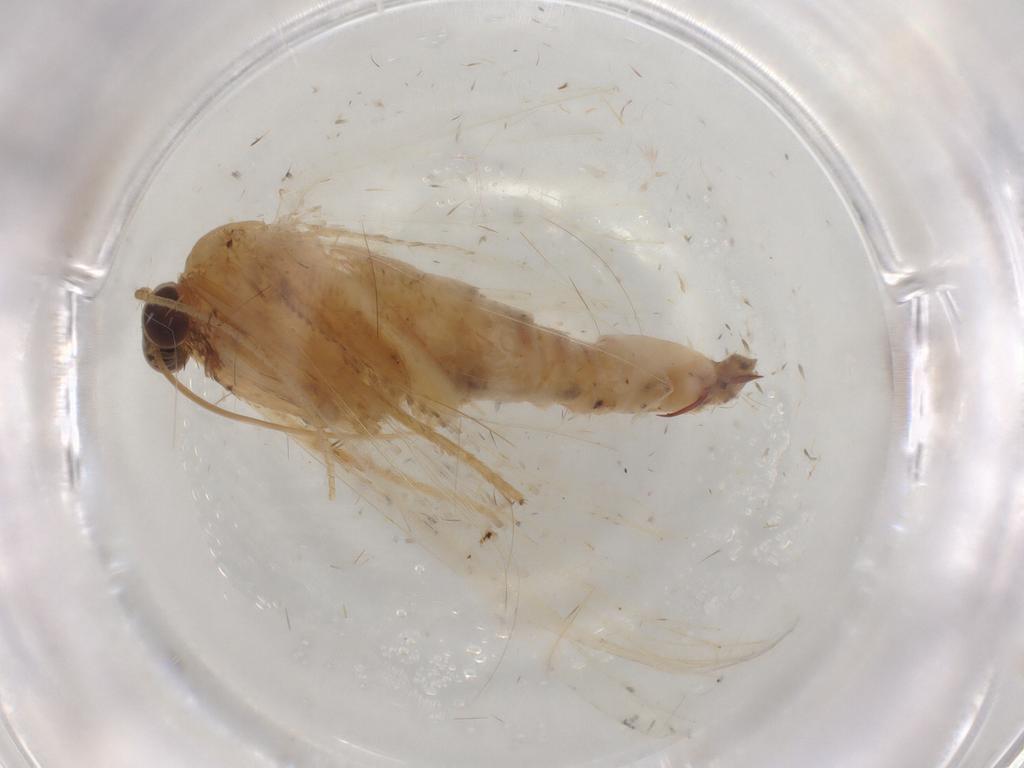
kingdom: Animalia
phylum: Arthropoda
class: Insecta
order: Lepidoptera
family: Geometridae
